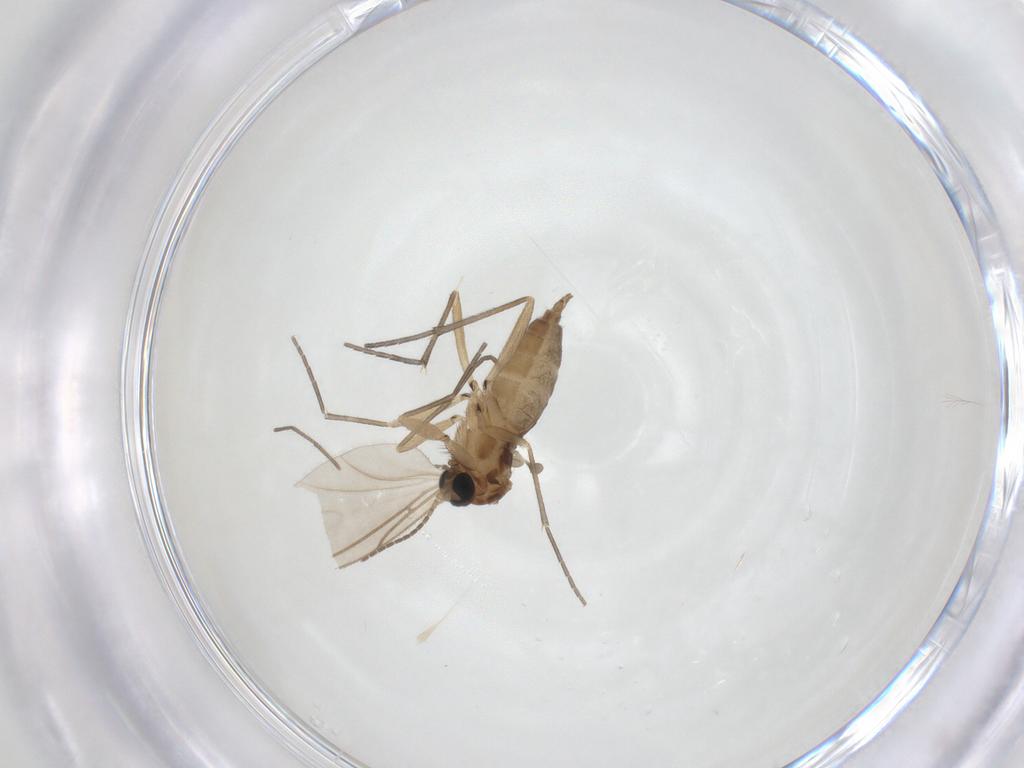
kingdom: Animalia
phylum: Arthropoda
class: Insecta
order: Diptera
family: Sciaridae
